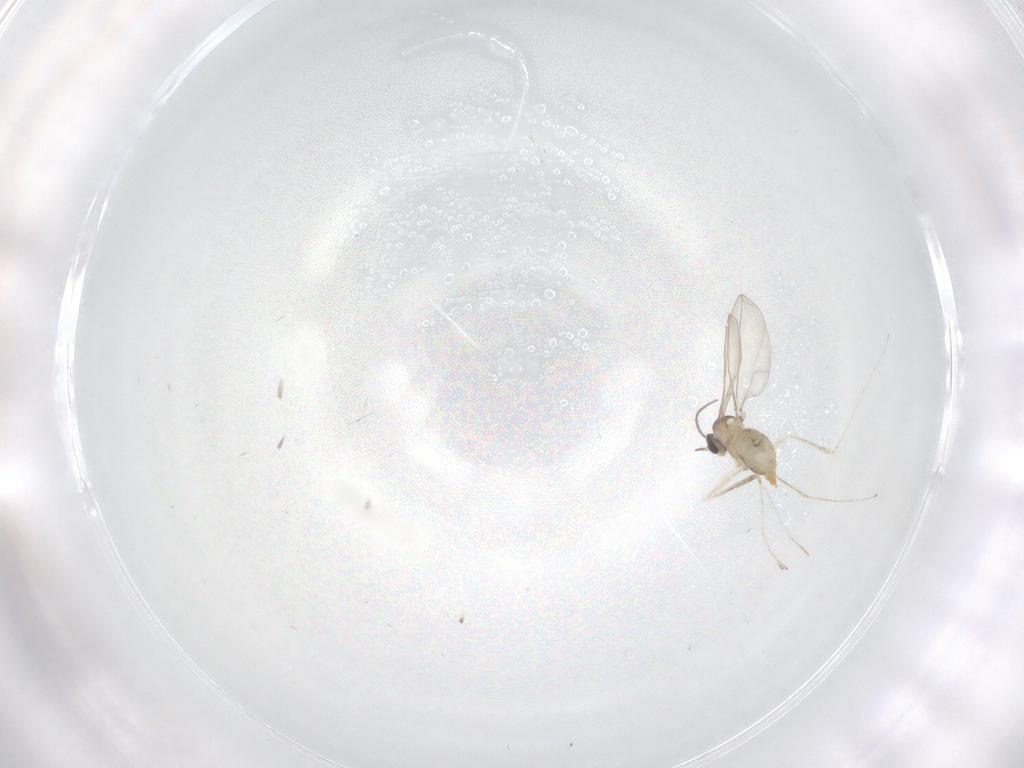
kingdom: Animalia
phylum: Arthropoda
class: Insecta
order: Diptera
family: Cecidomyiidae
